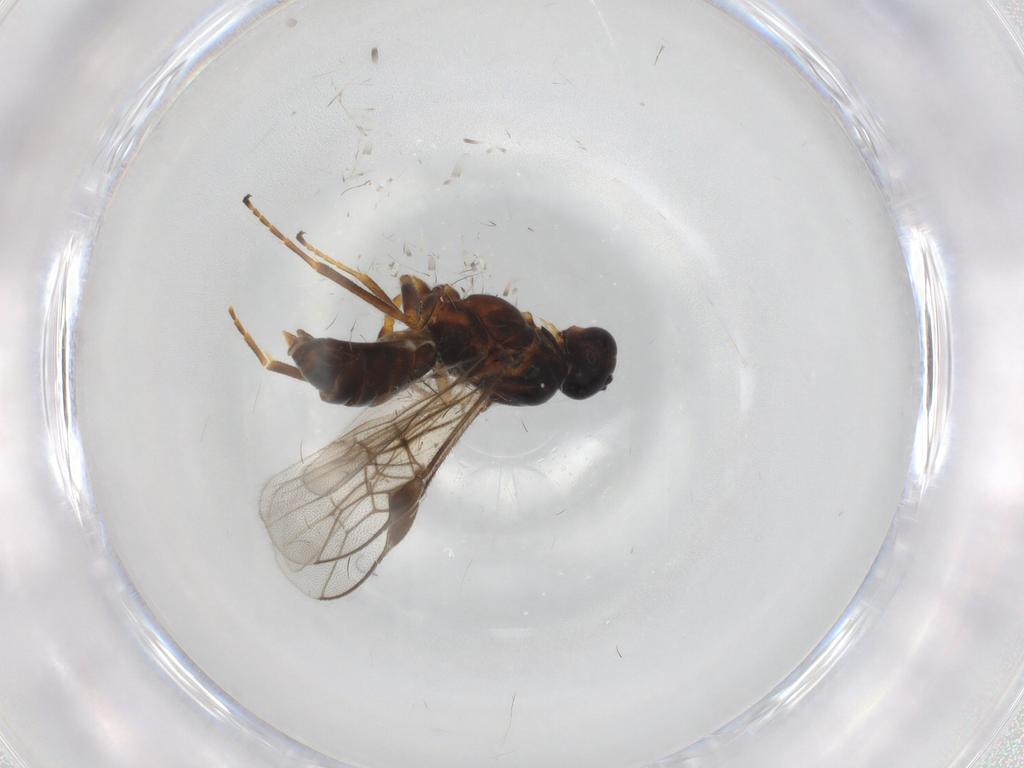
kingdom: Animalia
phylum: Arthropoda
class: Insecta
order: Hymenoptera
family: Braconidae
